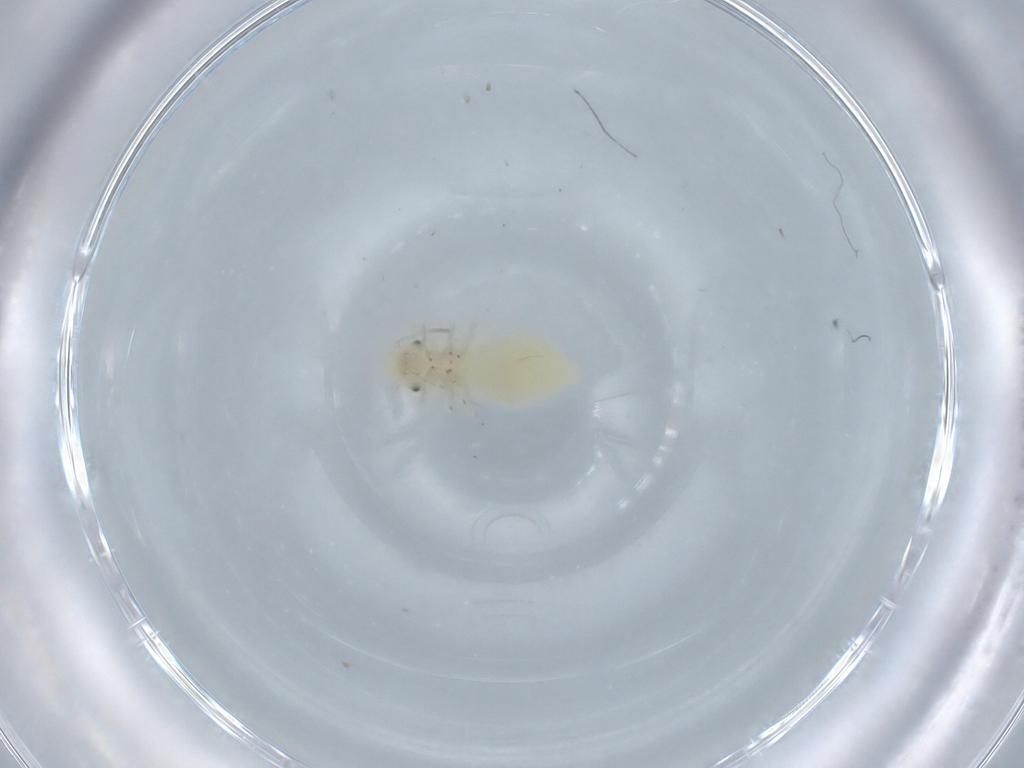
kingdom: Animalia
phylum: Arthropoda
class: Insecta
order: Psocodea
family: Stenopsocidae
